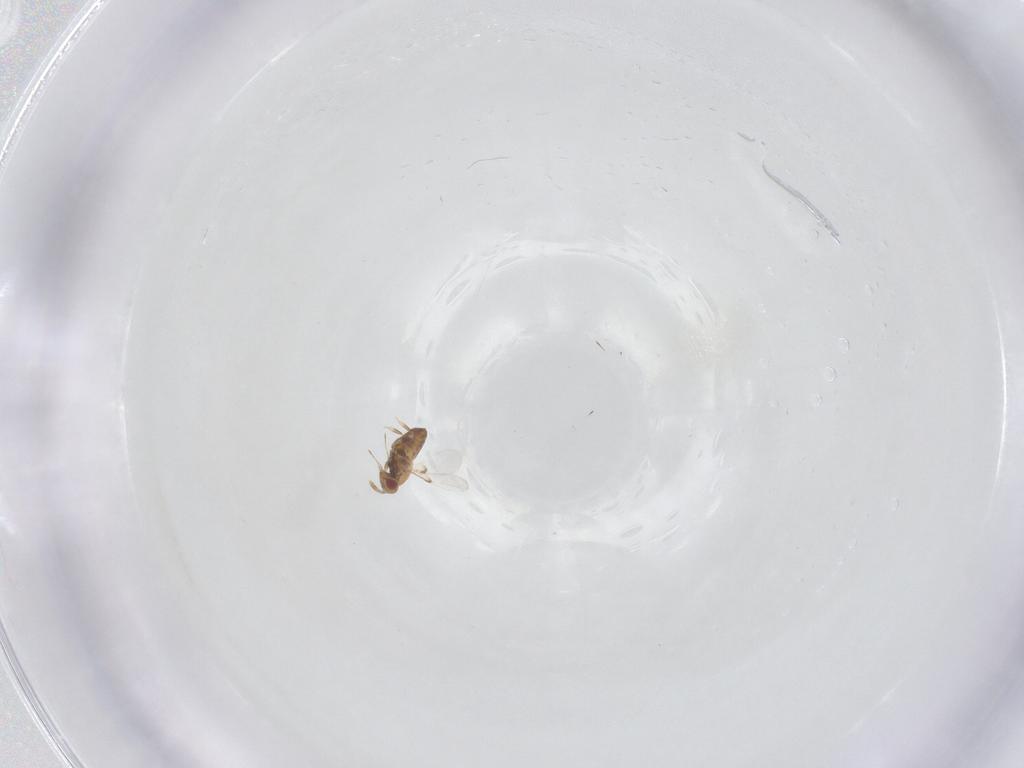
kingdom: Animalia
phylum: Arthropoda
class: Insecta
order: Hymenoptera
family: Trichogrammatidae
